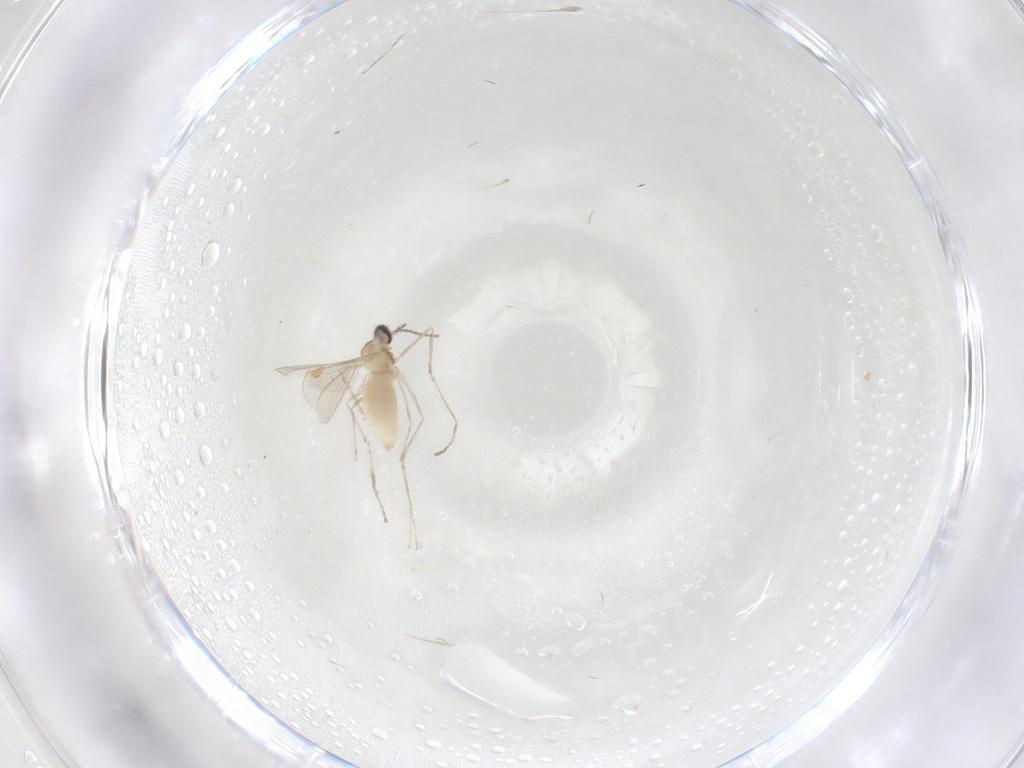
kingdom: Animalia
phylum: Arthropoda
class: Insecta
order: Diptera
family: Cecidomyiidae
